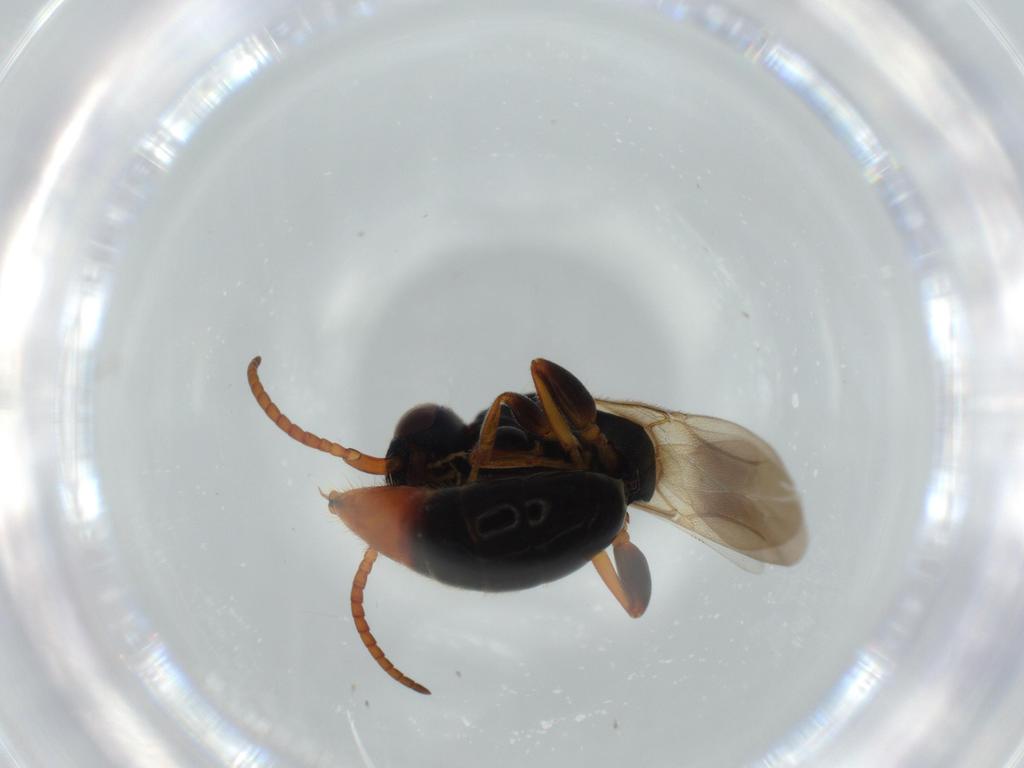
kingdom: Animalia
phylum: Arthropoda
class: Insecta
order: Hymenoptera
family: Bethylidae
